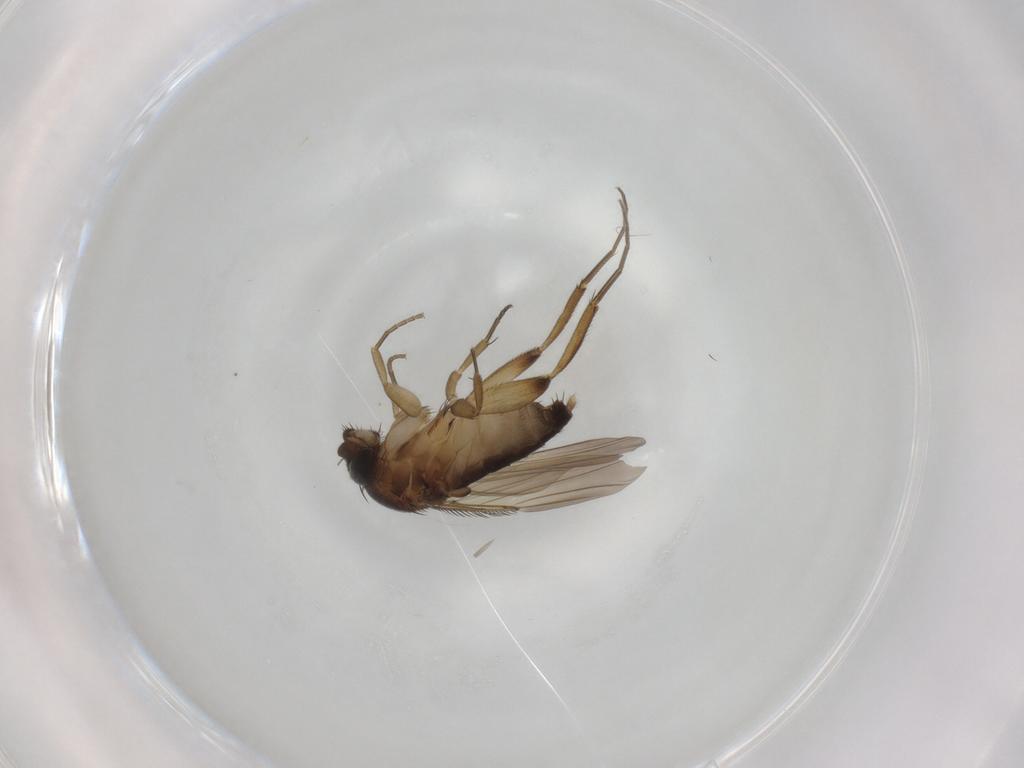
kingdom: Animalia
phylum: Arthropoda
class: Insecta
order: Diptera
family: Phoridae
